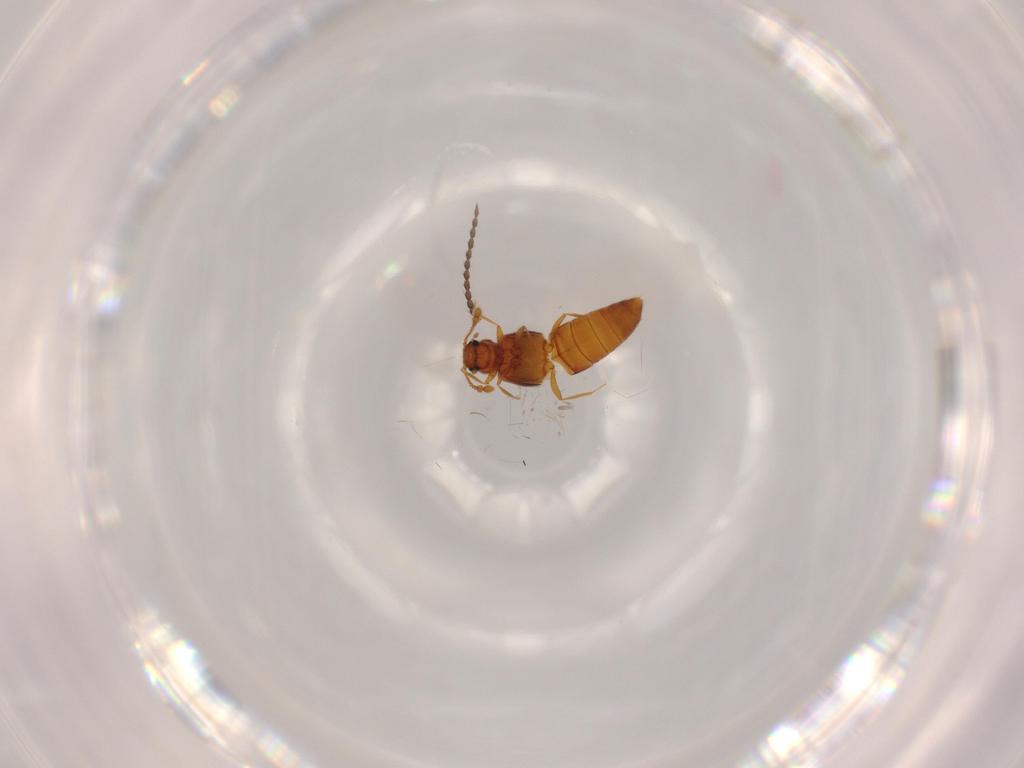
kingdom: Animalia
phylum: Arthropoda
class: Insecta
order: Coleoptera
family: Staphylinidae
